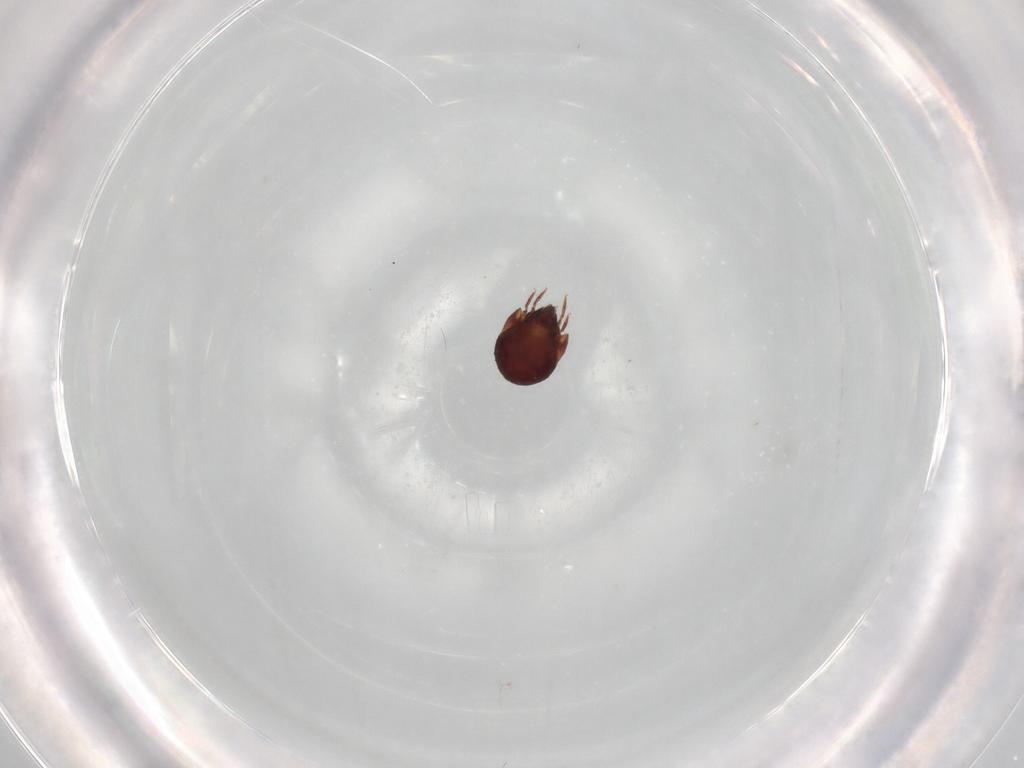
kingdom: Animalia
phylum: Arthropoda
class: Arachnida
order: Sarcoptiformes
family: Humerobatidae
